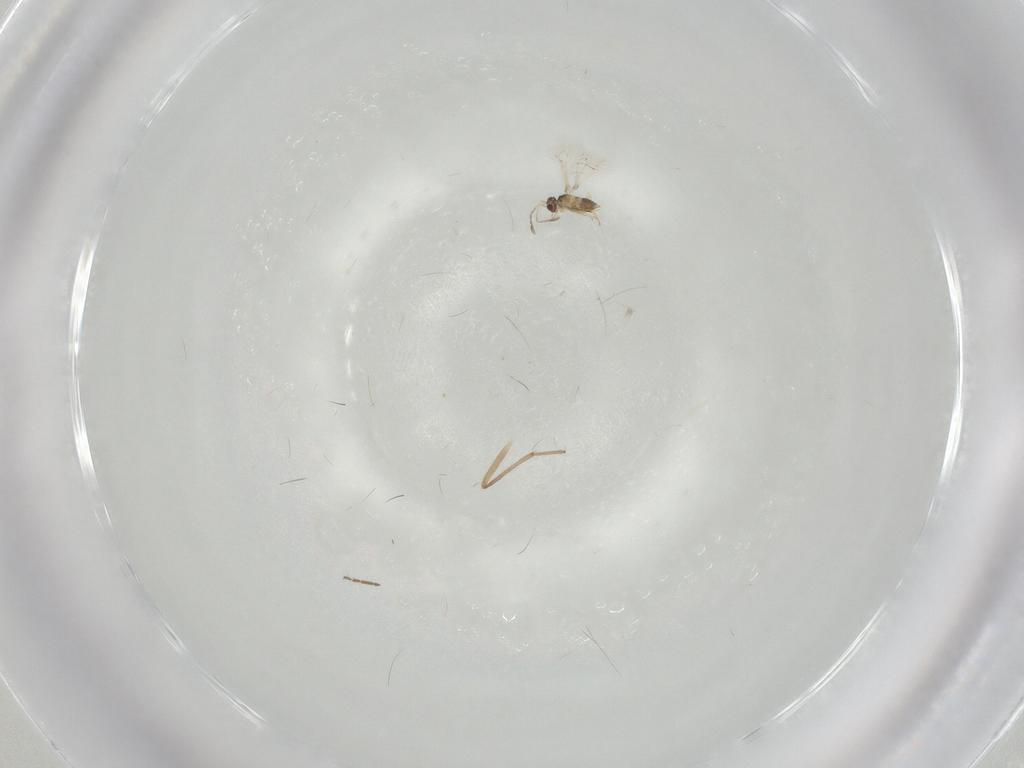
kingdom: Animalia
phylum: Arthropoda
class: Insecta
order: Hymenoptera
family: Mymaridae
